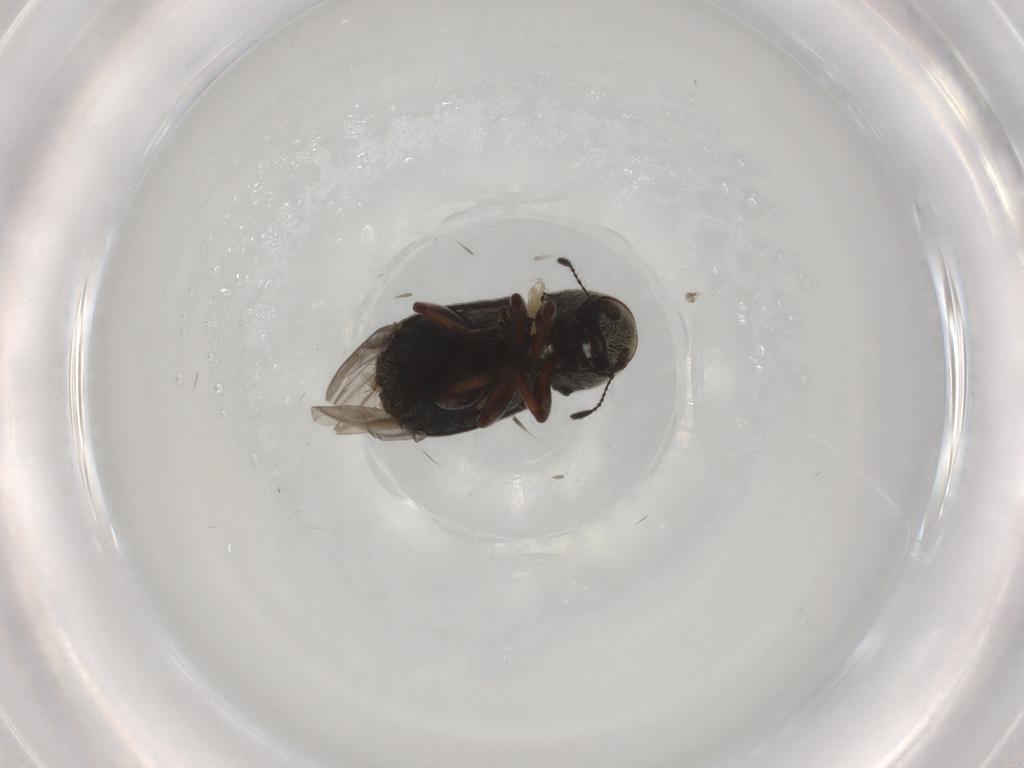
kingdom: Animalia
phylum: Arthropoda
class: Insecta
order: Coleoptera
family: Anthribidae
